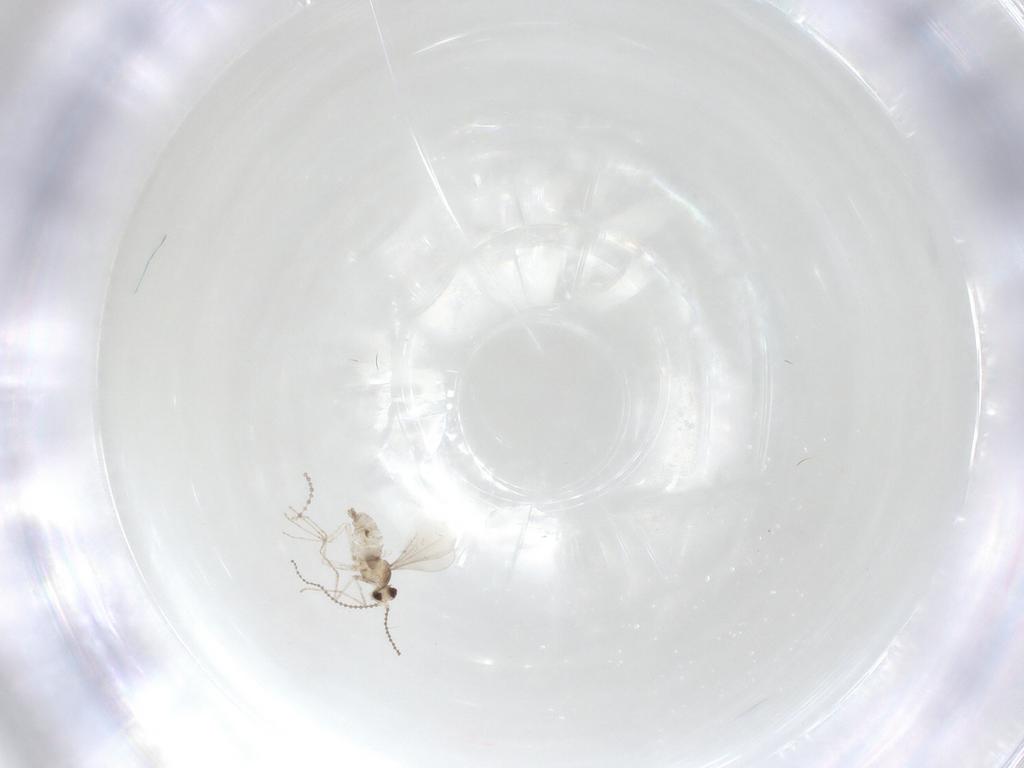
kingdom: Animalia
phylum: Arthropoda
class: Insecta
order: Diptera
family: Cecidomyiidae
